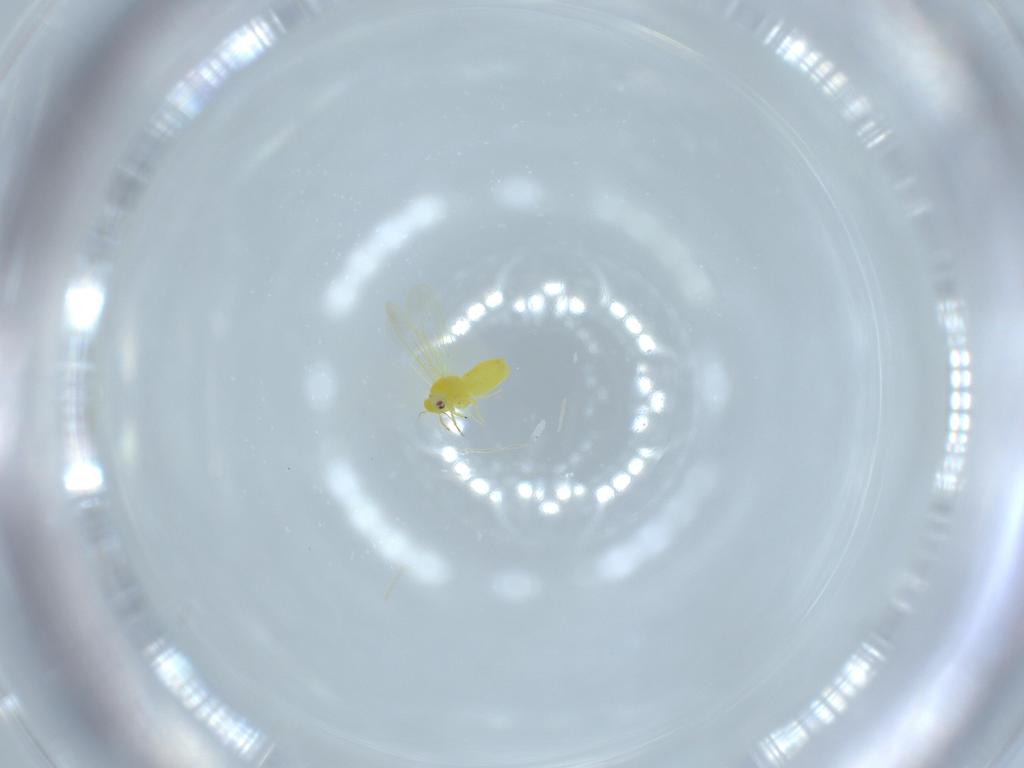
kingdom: Animalia
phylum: Arthropoda
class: Insecta
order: Hemiptera
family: Aleyrodidae
